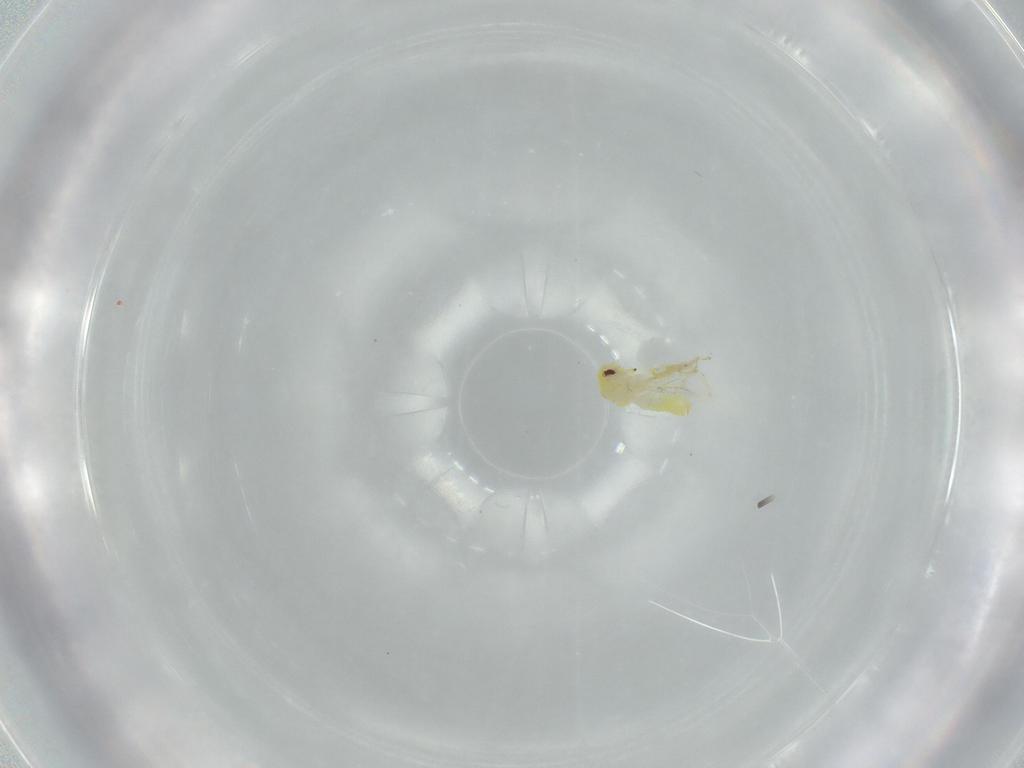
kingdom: Animalia
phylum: Arthropoda
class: Insecta
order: Hemiptera
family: Aleyrodidae
